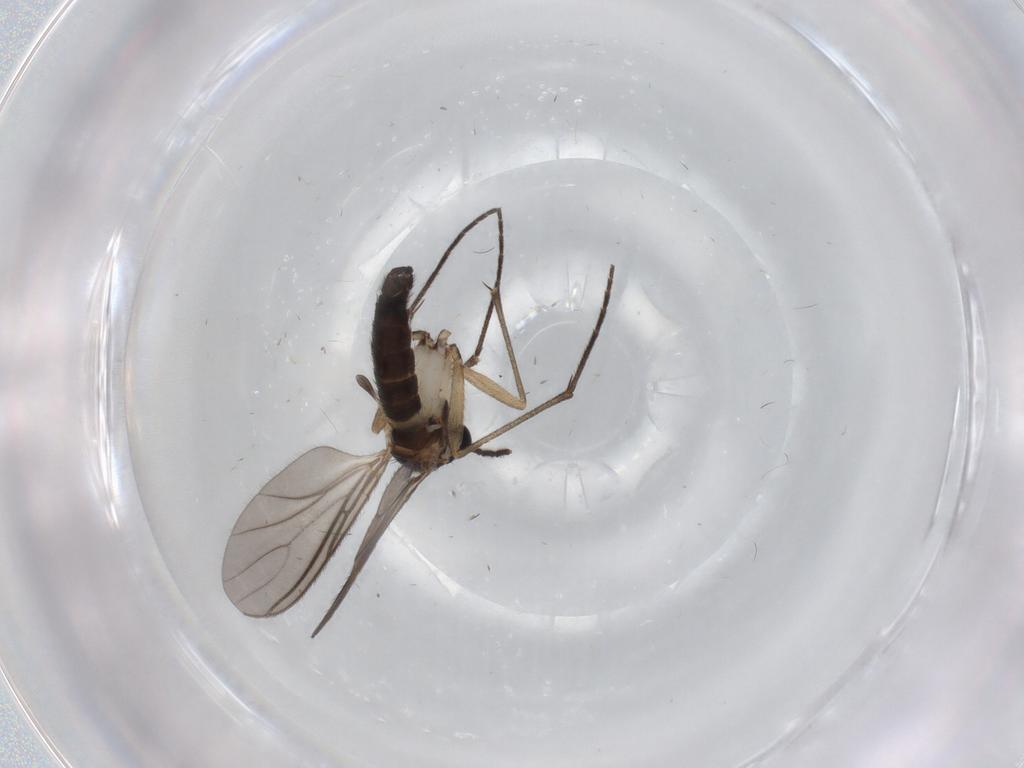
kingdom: Animalia
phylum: Arthropoda
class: Insecta
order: Diptera
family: Sciaridae
